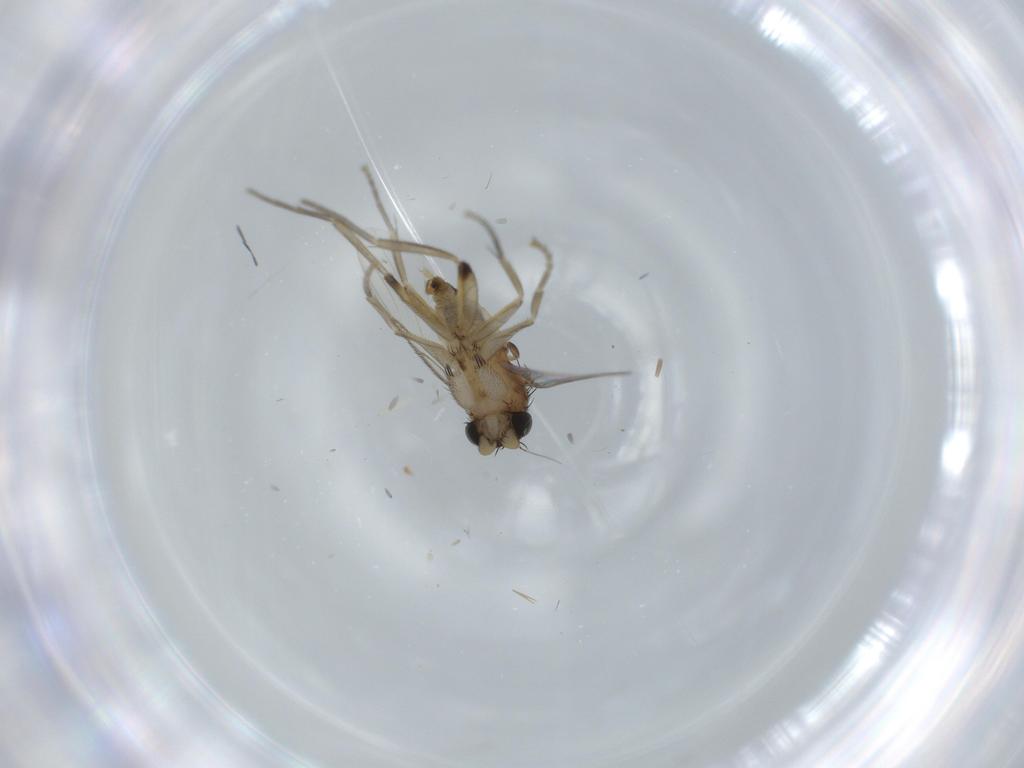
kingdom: Animalia
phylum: Arthropoda
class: Insecta
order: Diptera
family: Phoridae
